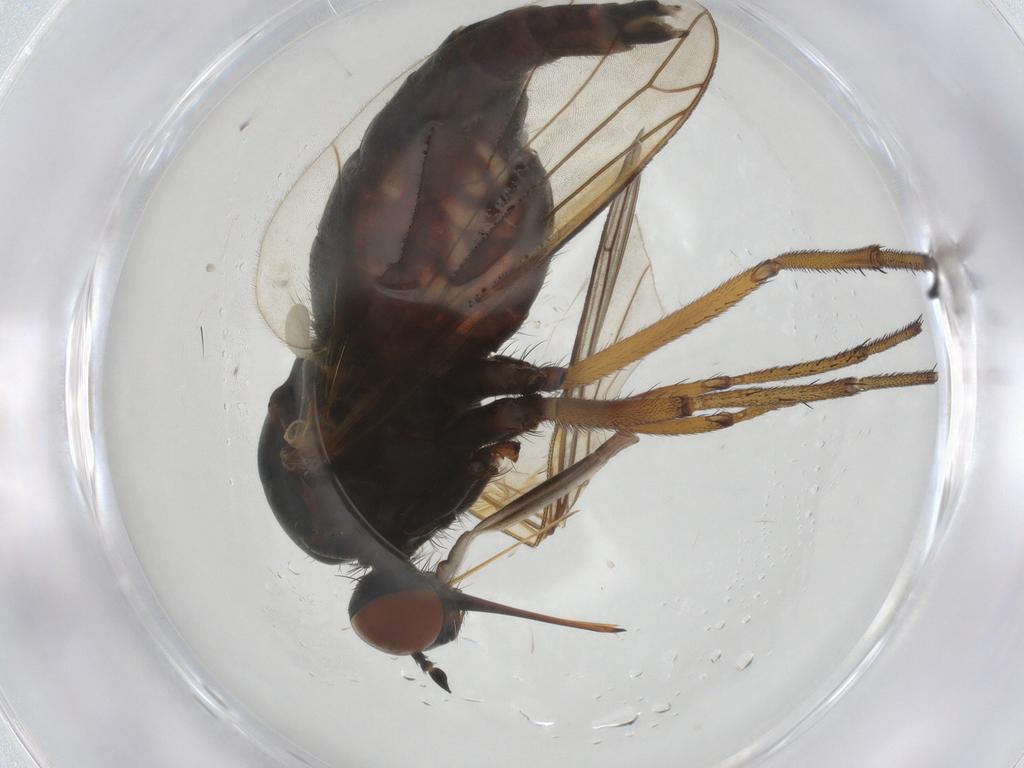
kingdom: Animalia
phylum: Arthropoda
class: Insecta
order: Diptera
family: Empididae
